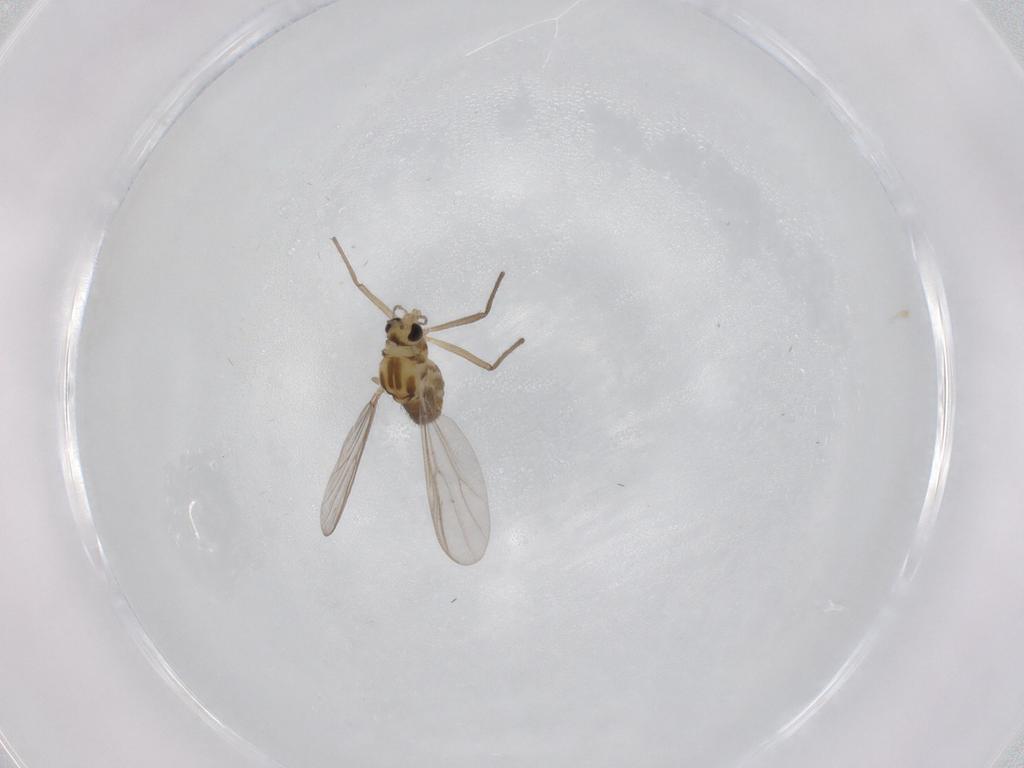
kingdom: Animalia
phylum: Arthropoda
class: Insecta
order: Diptera
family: Chironomidae
